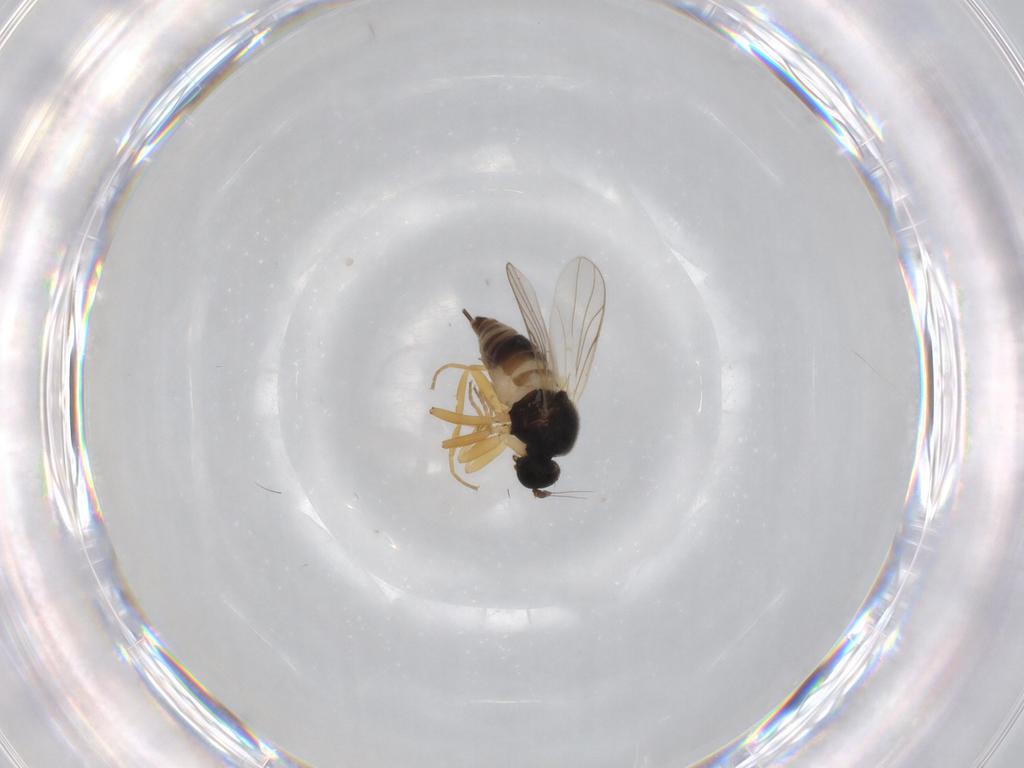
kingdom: Animalia
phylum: Arthropoda
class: Insecta
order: Diptera
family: Hybotidae
